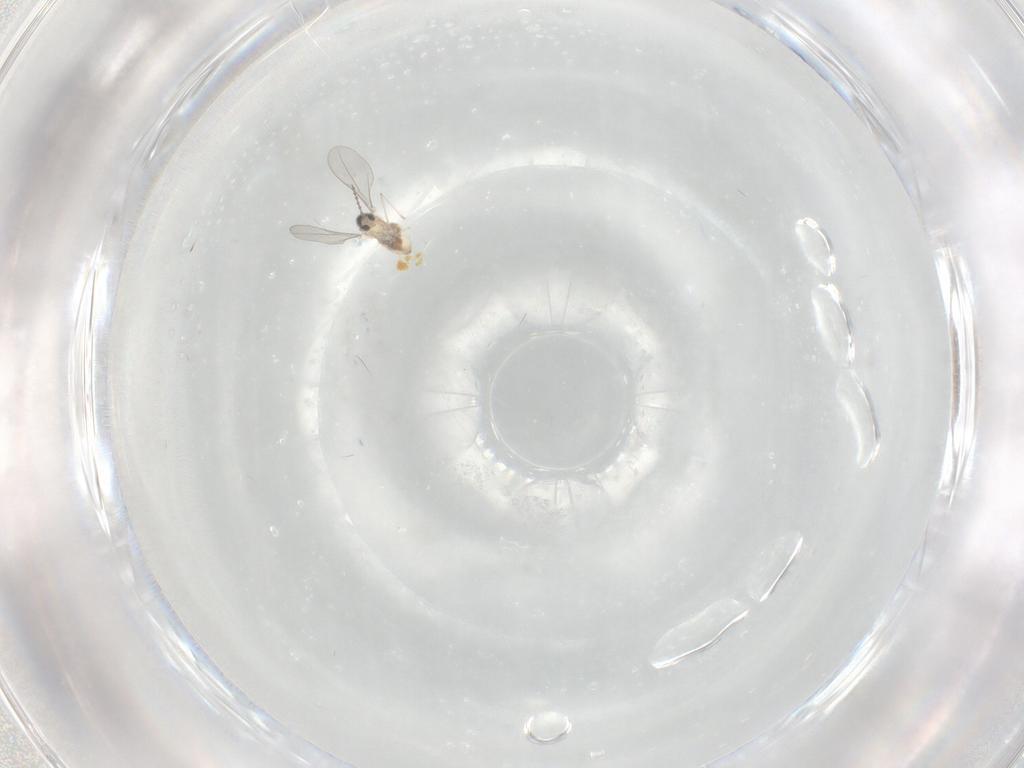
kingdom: Animalia
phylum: Arthropoda
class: Insecta
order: Diptera
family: Cecidomyiidae
